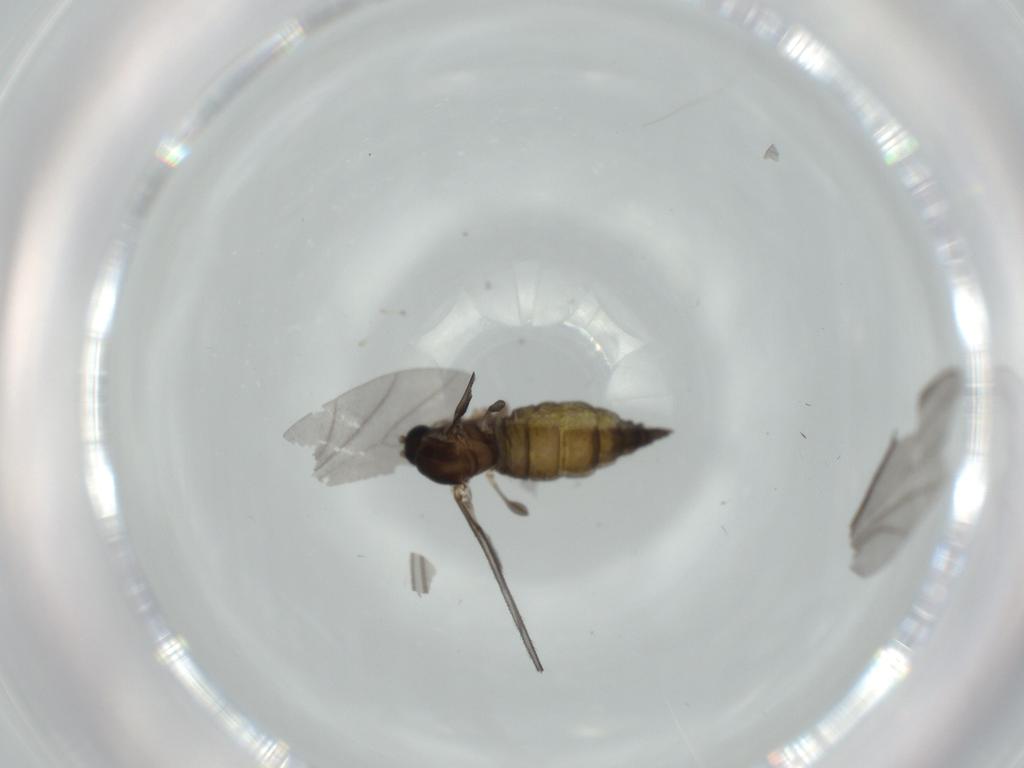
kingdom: Animalia
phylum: Arthropoda
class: Insecta
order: Diptera
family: Sciaridae
